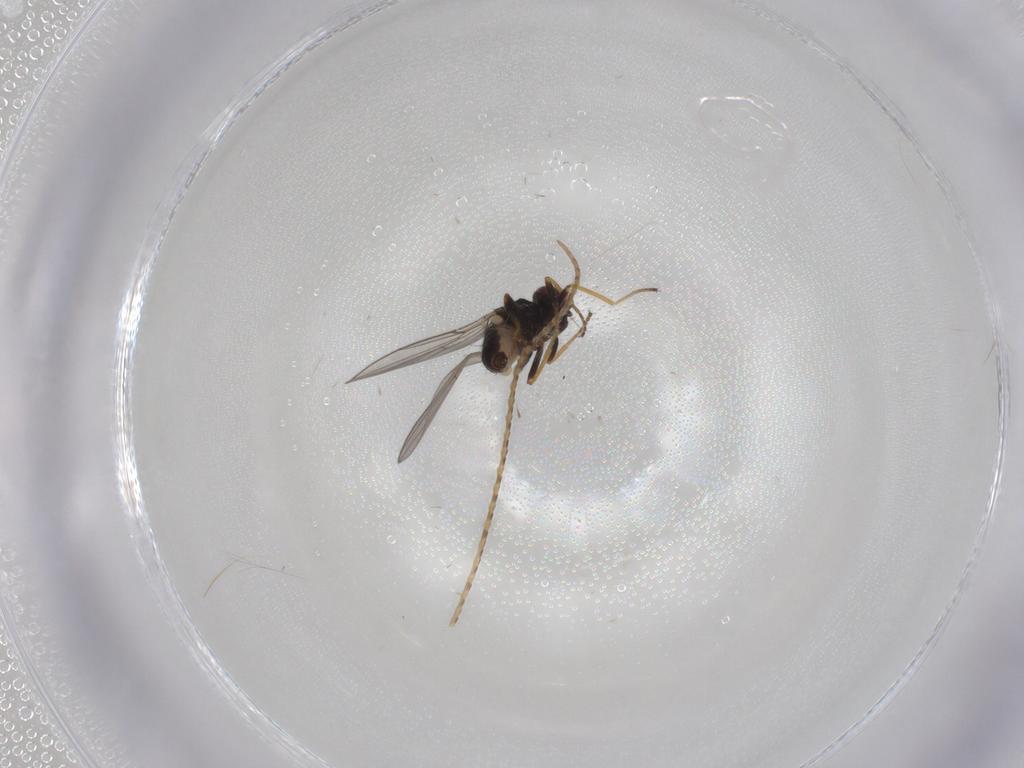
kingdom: Animalia
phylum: Arthropoda
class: Insecta
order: Diptera
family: Chloropidae
